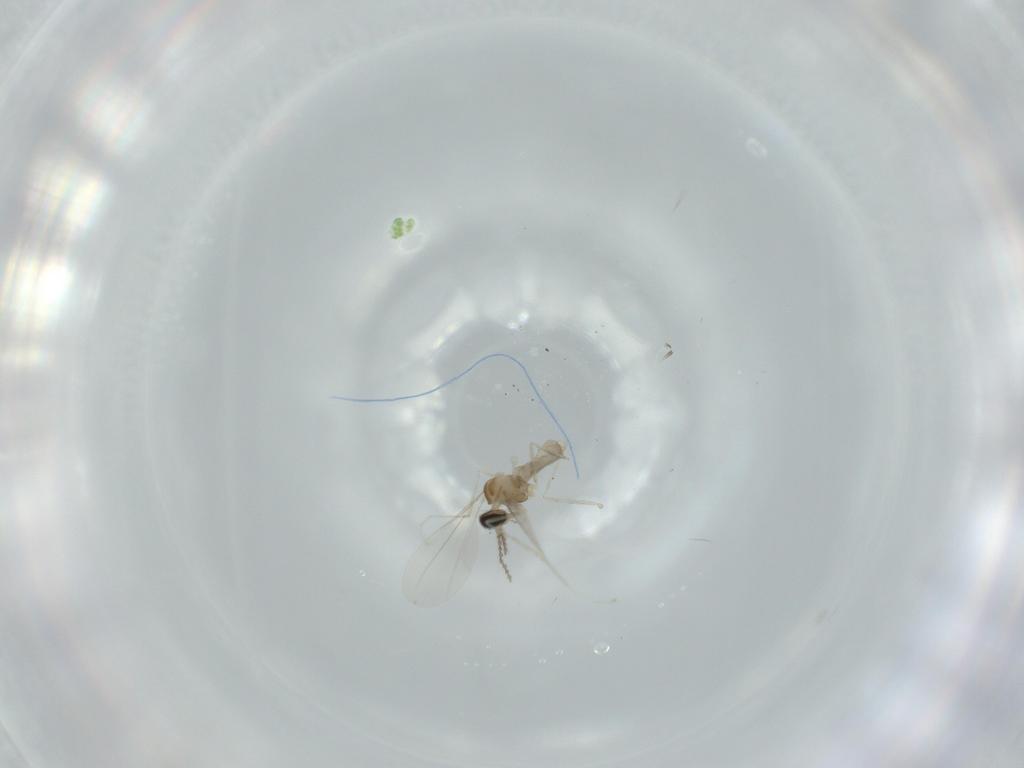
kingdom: Animalia
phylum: Arthropoda
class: Insecta
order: Diptera
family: Cecidomyiidae
